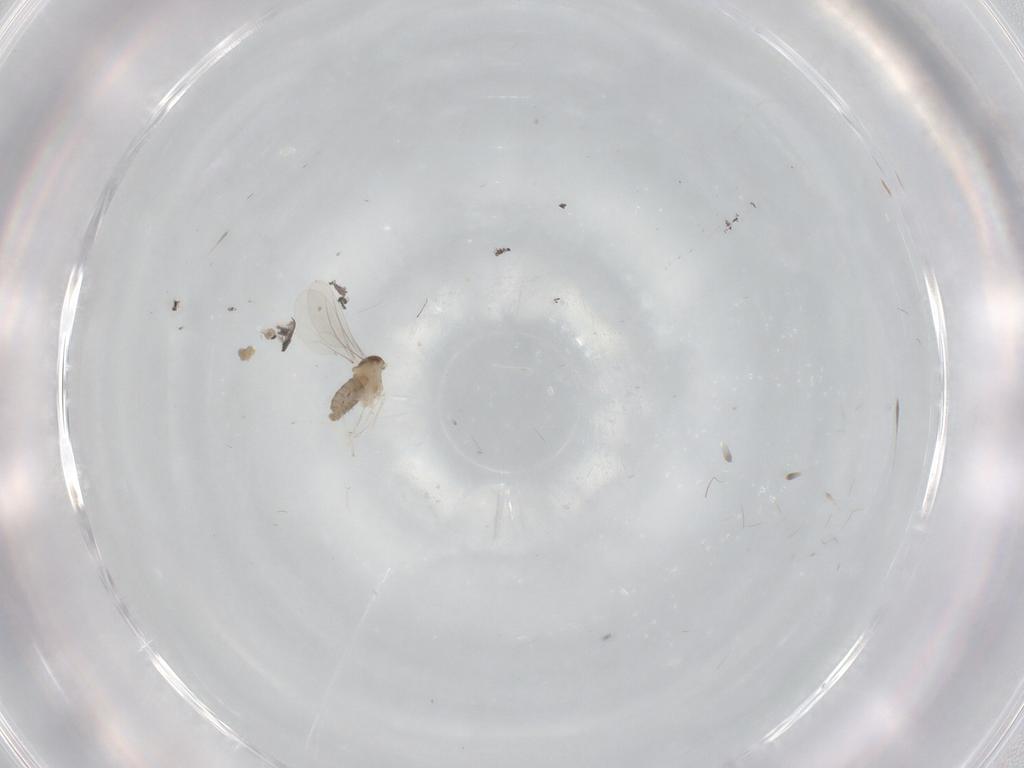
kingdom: Animalia
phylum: Arthropoda
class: Insecta
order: Diptera
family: Cecidomyiidae
